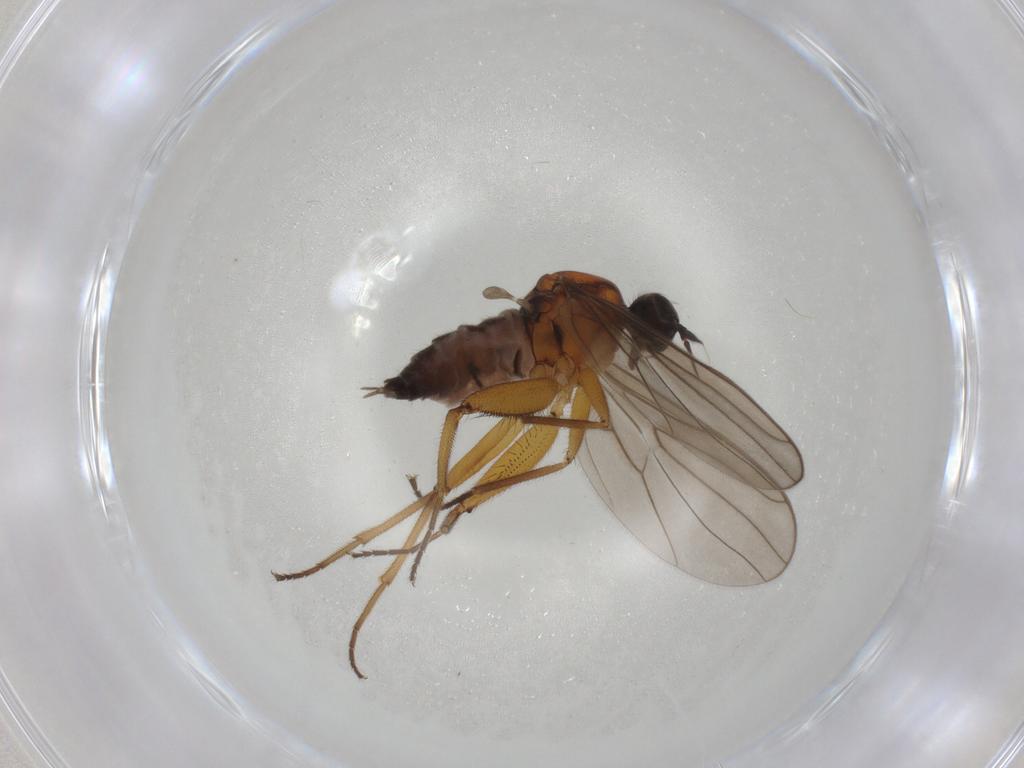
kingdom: Animalia
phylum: Arthropoda
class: Insecta
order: Diptera
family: Hybotidae
